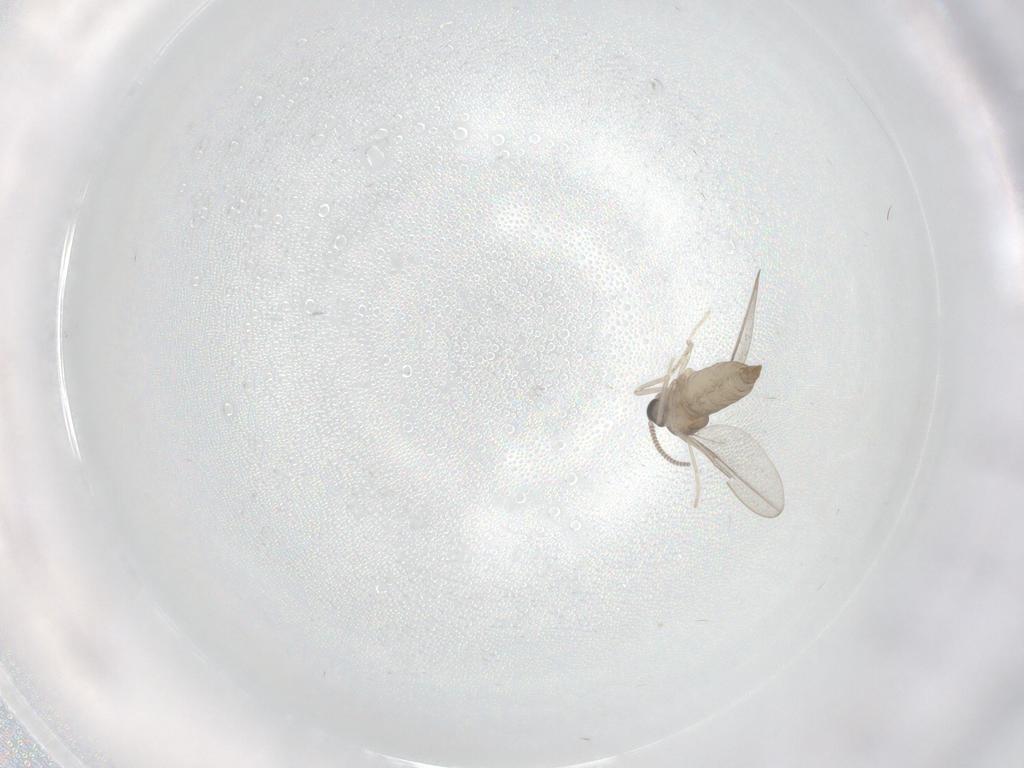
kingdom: Animalia
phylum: Arthropoda
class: Insecta
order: Diptera
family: Cecidomyiidae
